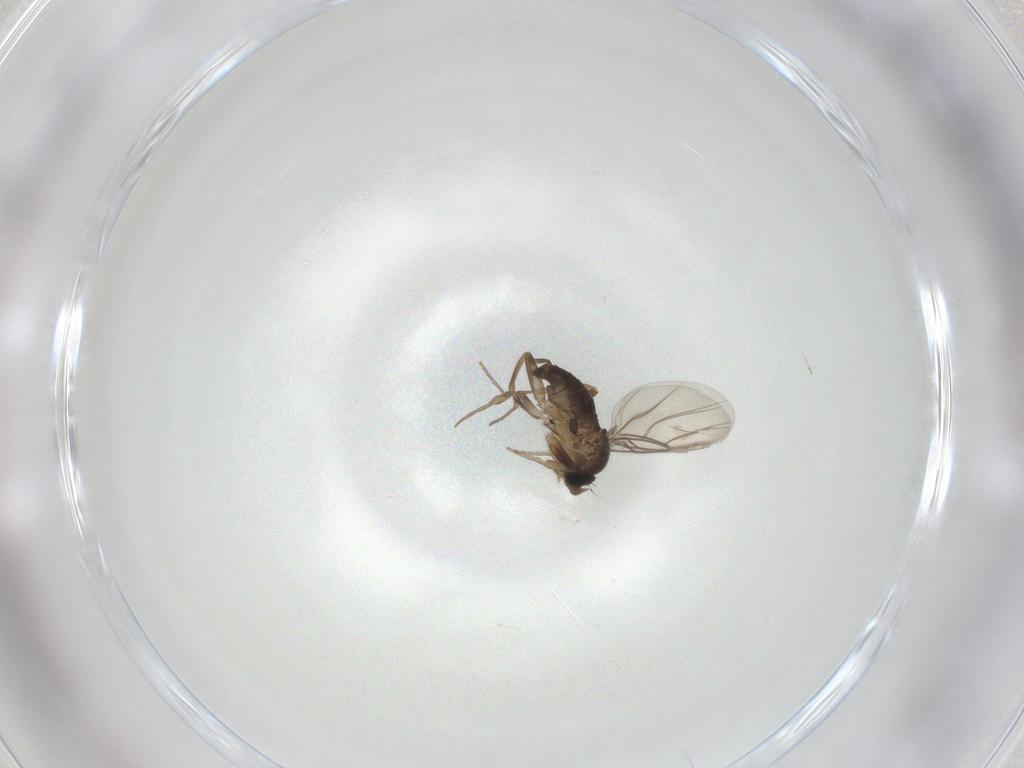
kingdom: Animalia
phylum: Arthropoda
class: Insecta
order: Diptera
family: Phoridae
